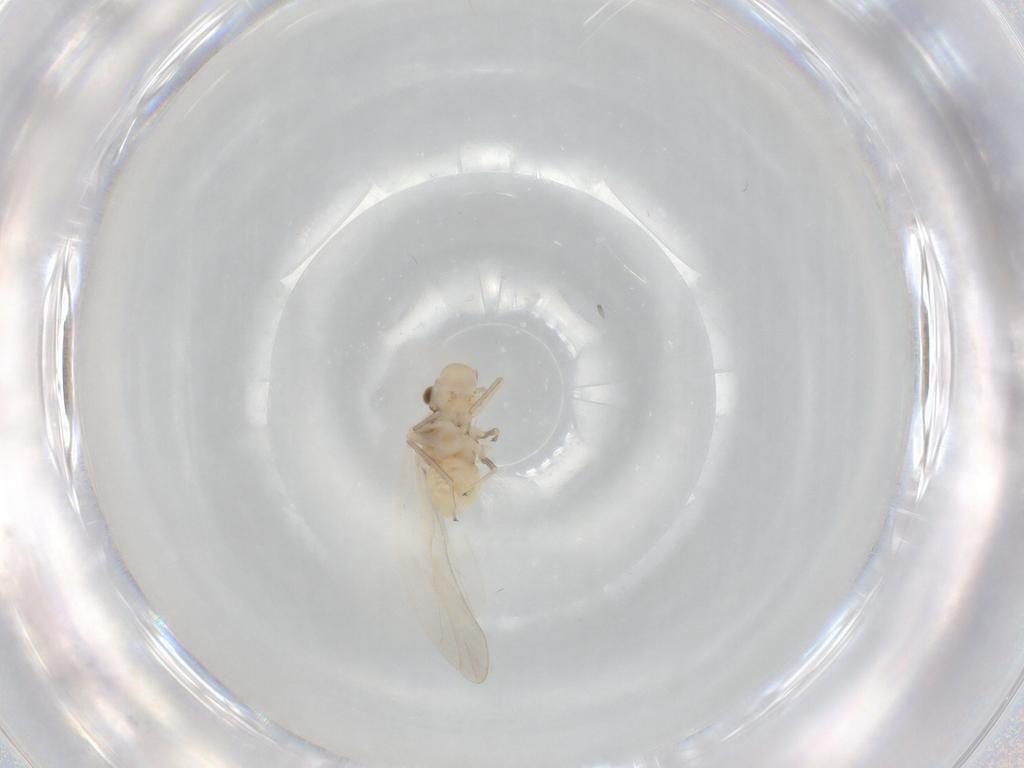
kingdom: Animalia
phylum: Arthropoda
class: Insecta
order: Psocodea
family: Caeciliusidae
